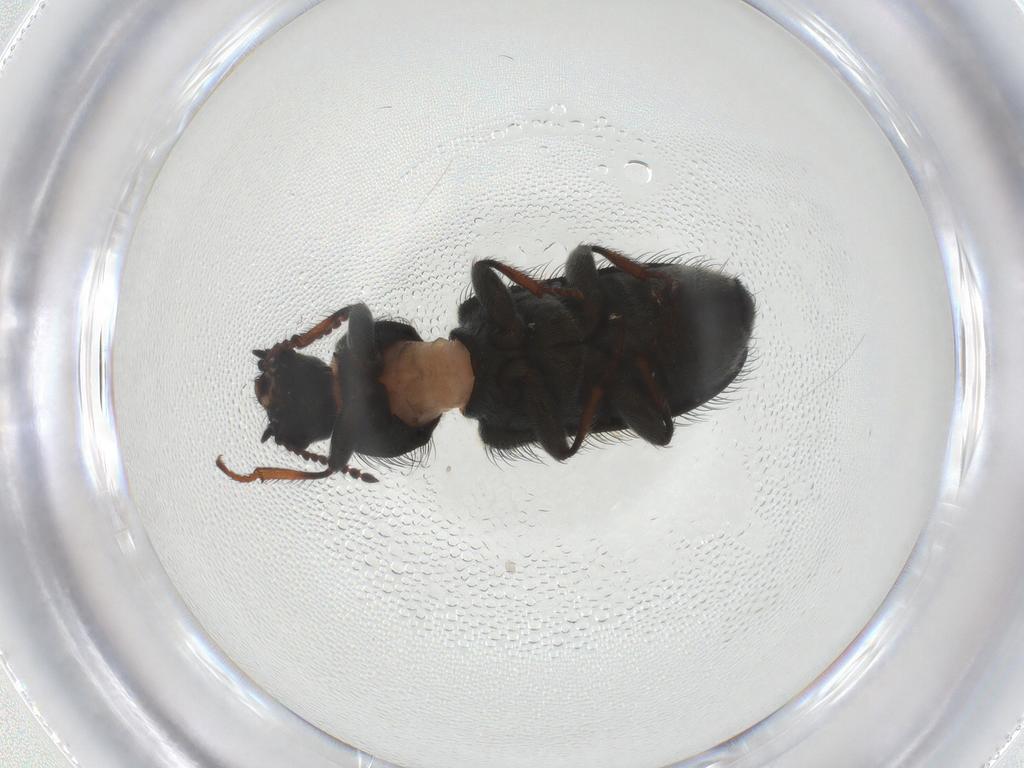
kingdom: Animalia
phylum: Arthropoda
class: Insecta
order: Coleoptera
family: Melyridae
